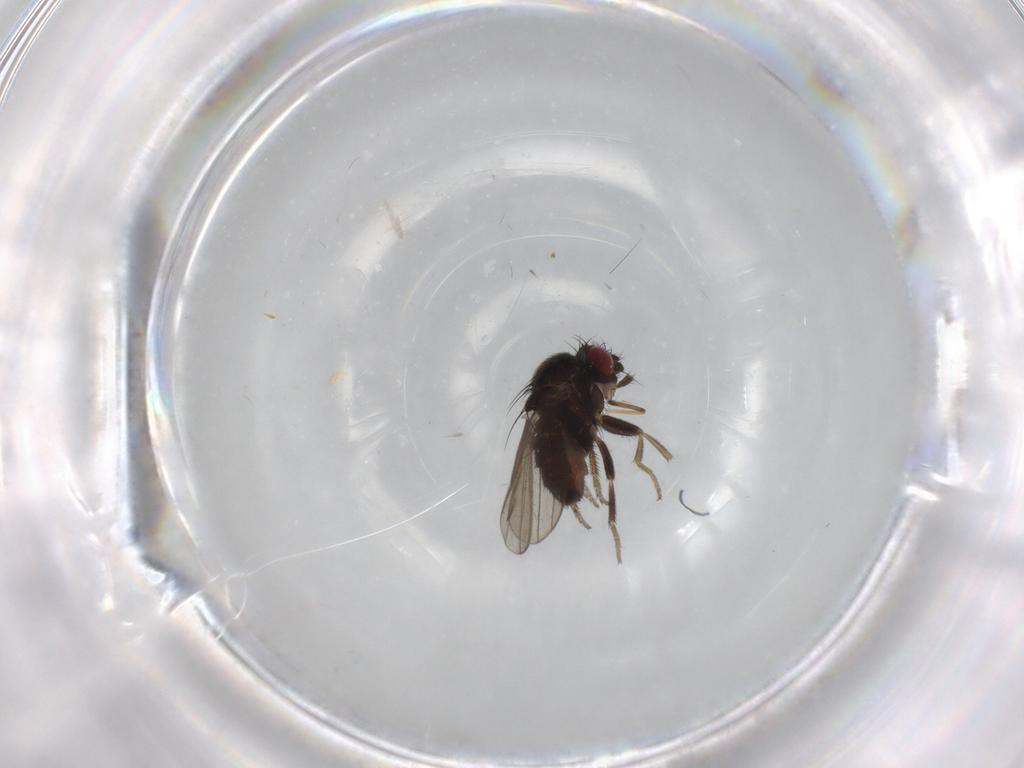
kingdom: Animalia
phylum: Arthropoda
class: Insecta
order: Diptera
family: Milichiidae
